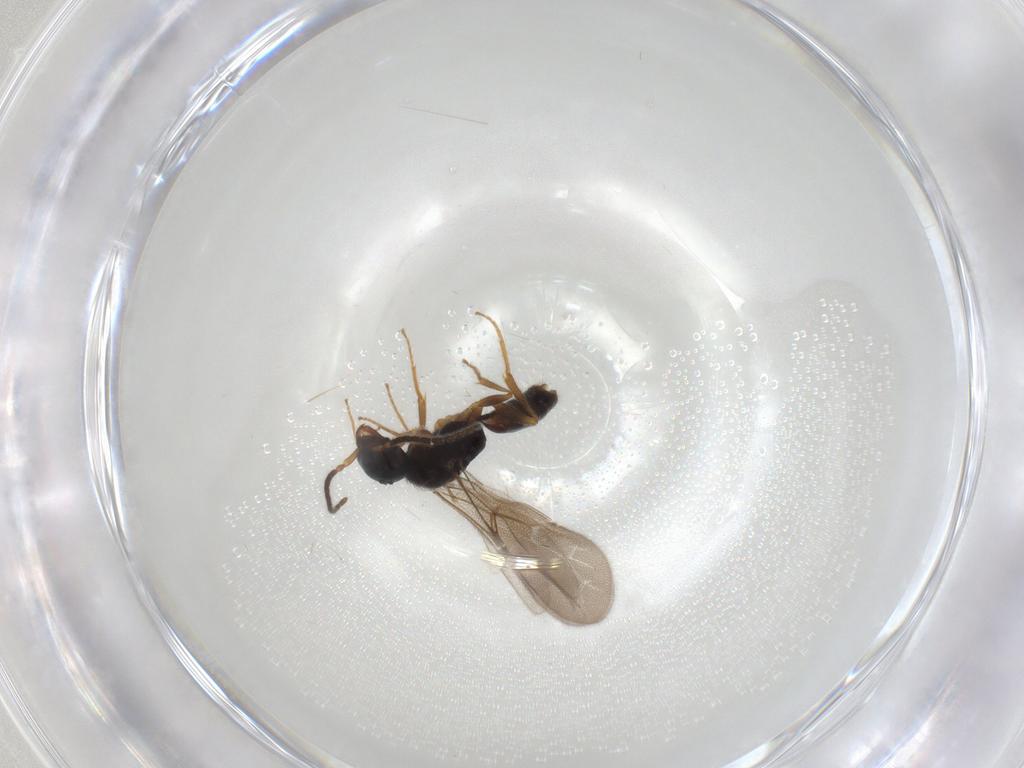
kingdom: Animalia
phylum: Arthropoda
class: Insecta
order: Hymenoptera
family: Bethylidae
